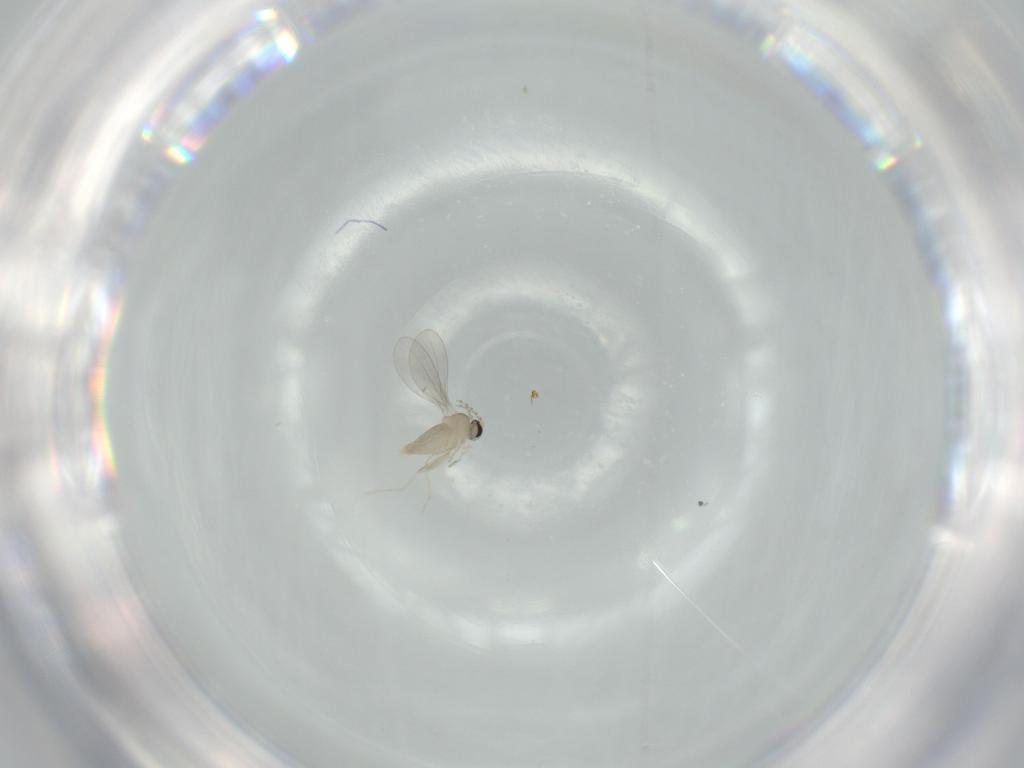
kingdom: Animalia
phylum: Arthropoda
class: Insecta
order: Diptera
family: Cecidomyiidae
